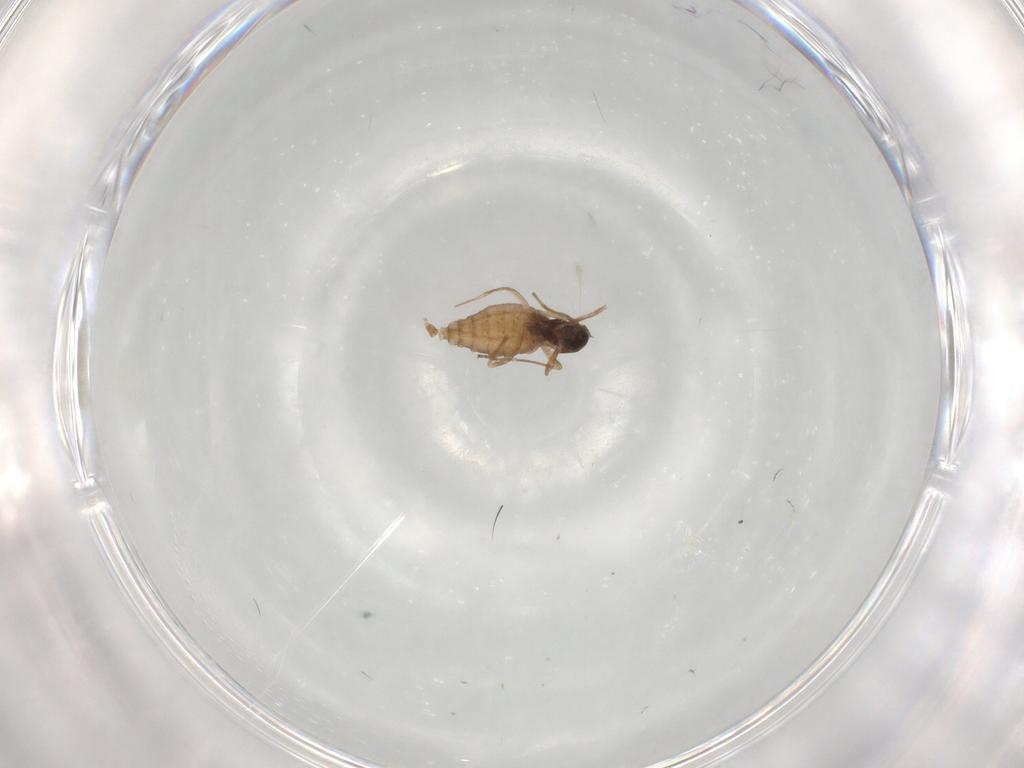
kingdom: Animalia
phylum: Arthropoda
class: Insecta
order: Diptera
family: Cecidomyiidae
